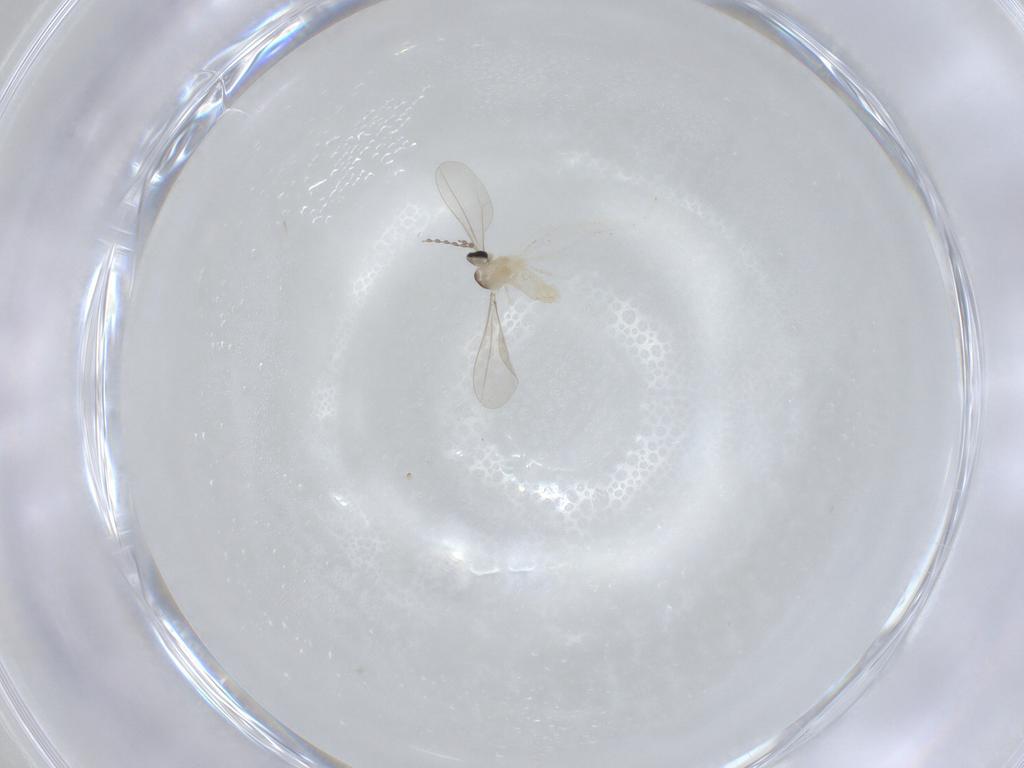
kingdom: Animalia
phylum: Arthropoda
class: Insecta
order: Diptera
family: Cecidomyiidae
